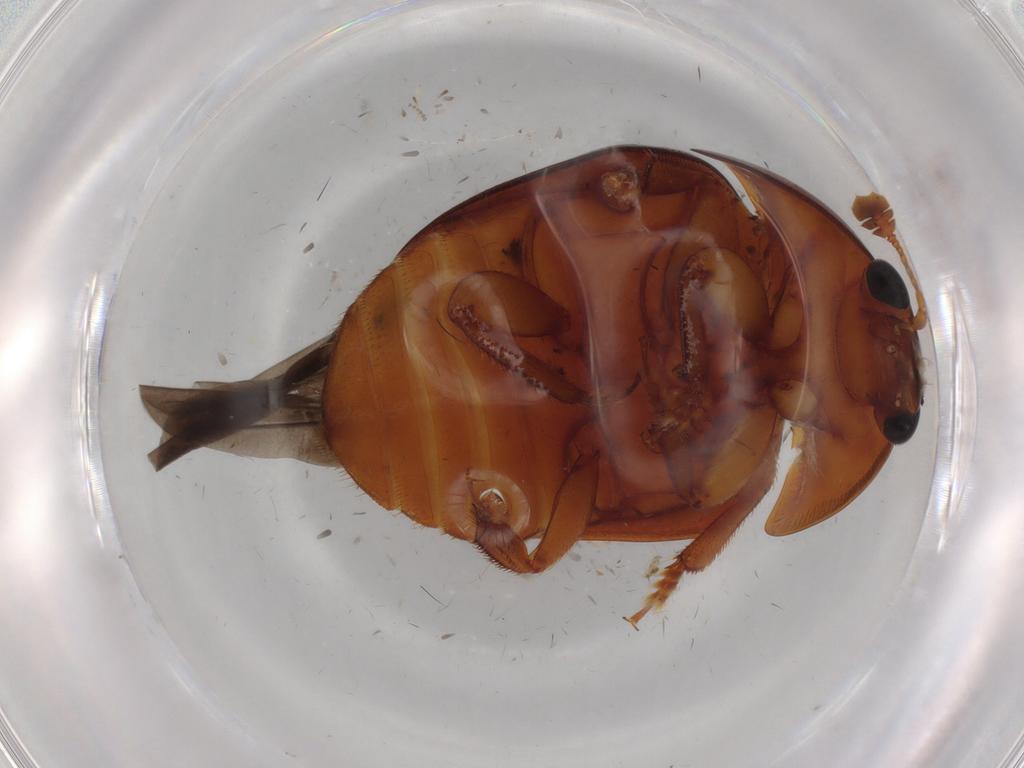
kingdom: Animalia
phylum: Arthropoda
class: Insecta
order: Coleoptera
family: Nitidulidae
